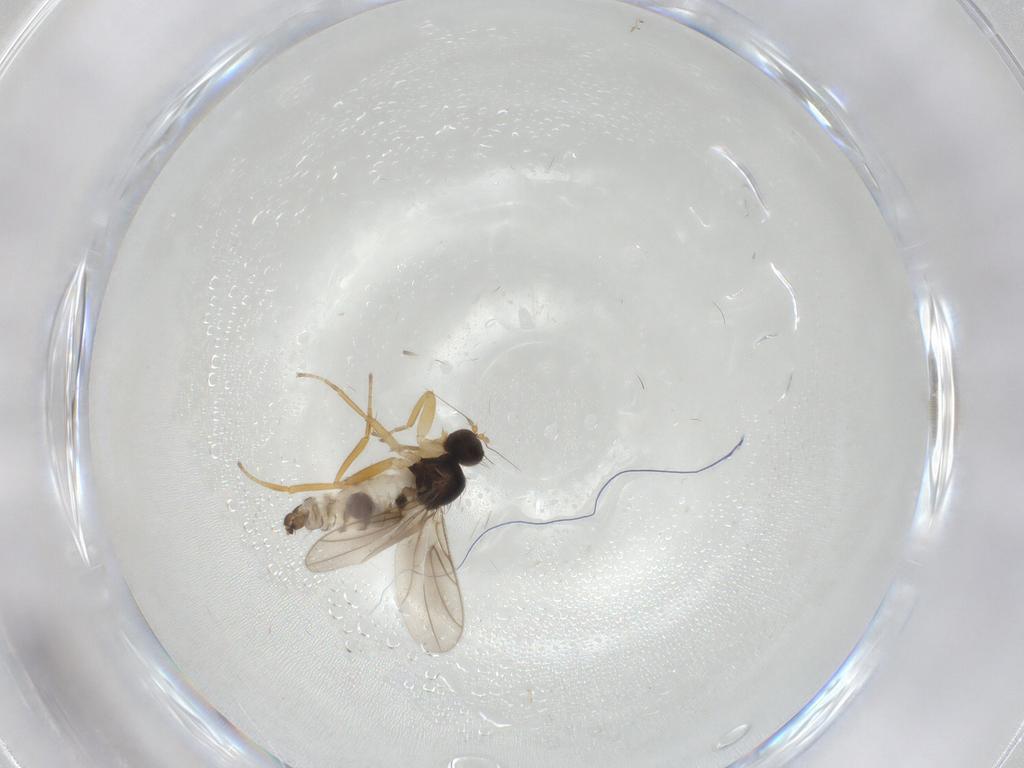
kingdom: Animalia
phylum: Arthropoda
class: Insecta
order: Diptera
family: Hybotidae
